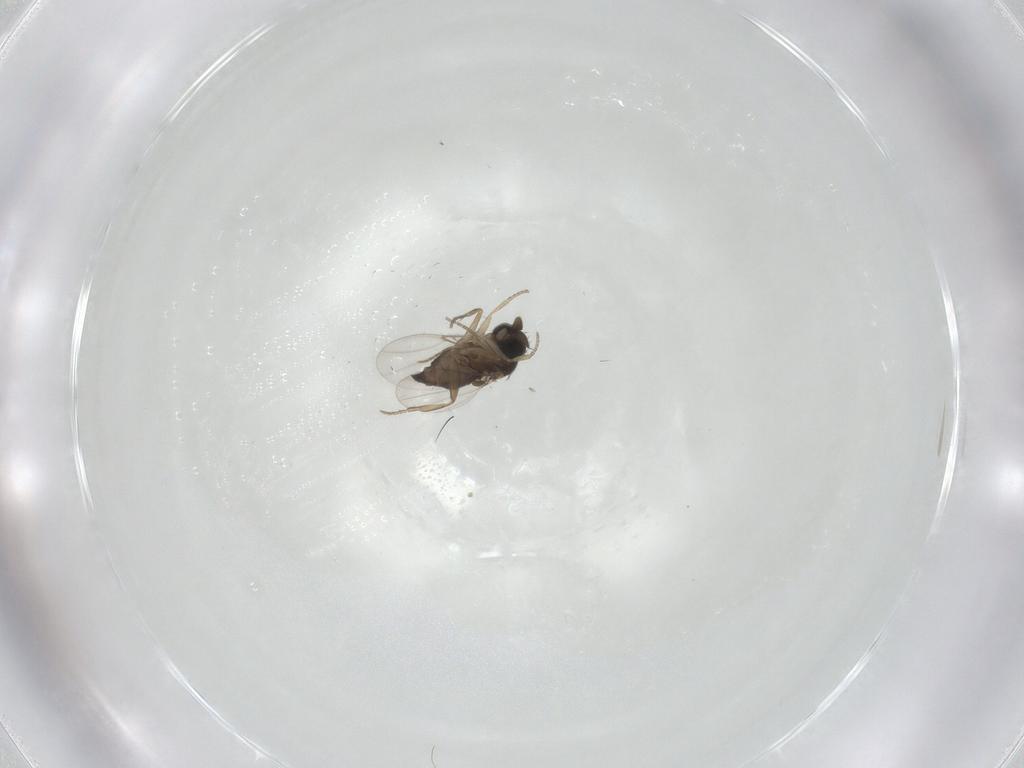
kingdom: Animalia
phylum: Arthropoda
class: Insecta
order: Diptera
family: Phoridae
